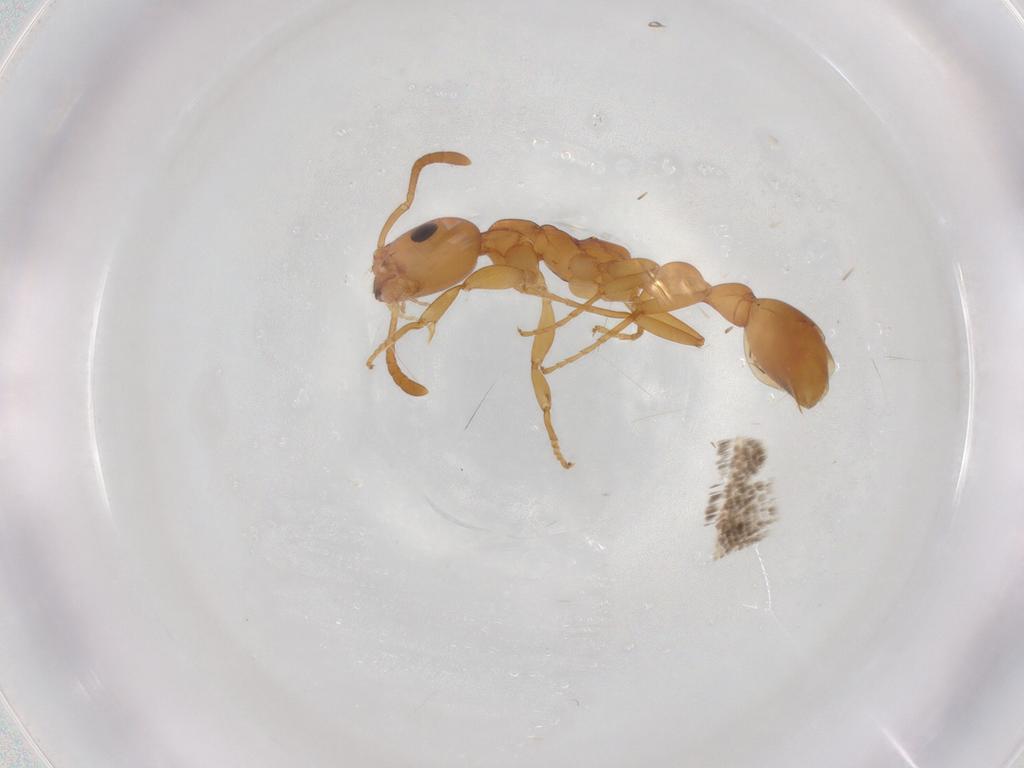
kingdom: Animalia
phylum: Arthropoda
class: Insecta
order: Hymenoptera
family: Formicidae
